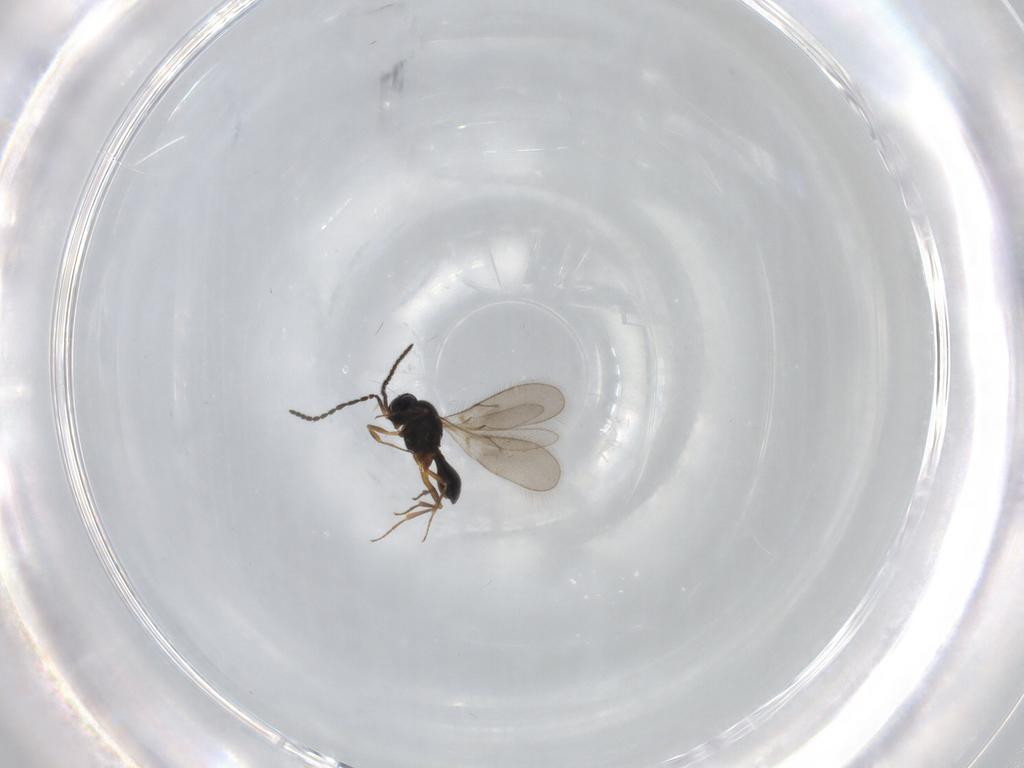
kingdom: Animalia
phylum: Arthropoda
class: Insecta
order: Hymenoptera
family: Scelionidae
